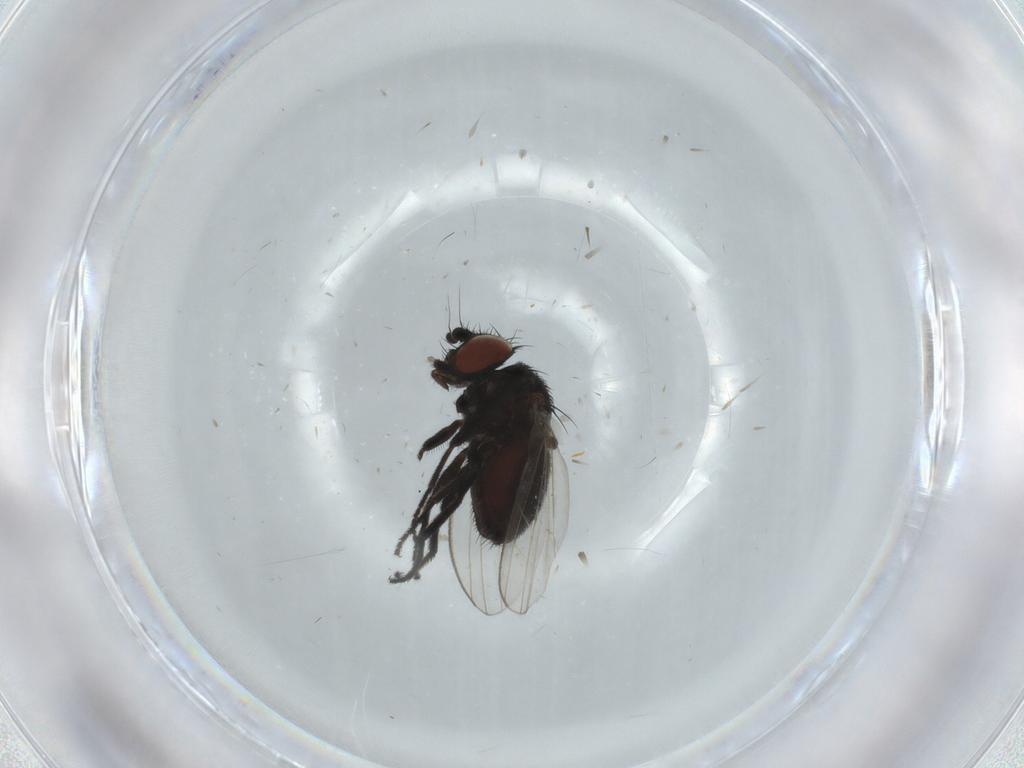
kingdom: Animalia
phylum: Arthropoda
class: Insecta
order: Diptera
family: Milichiidae
